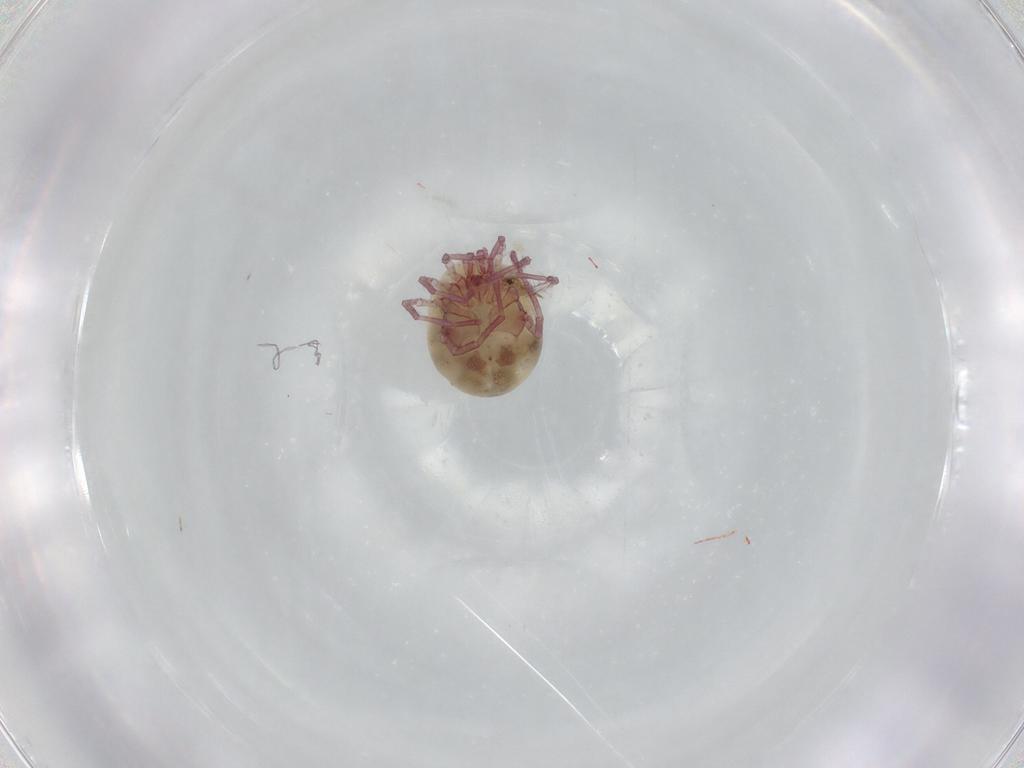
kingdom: Animalia
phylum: Arthropoda
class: Arachnida
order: Trombidiformes
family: Pionidae
